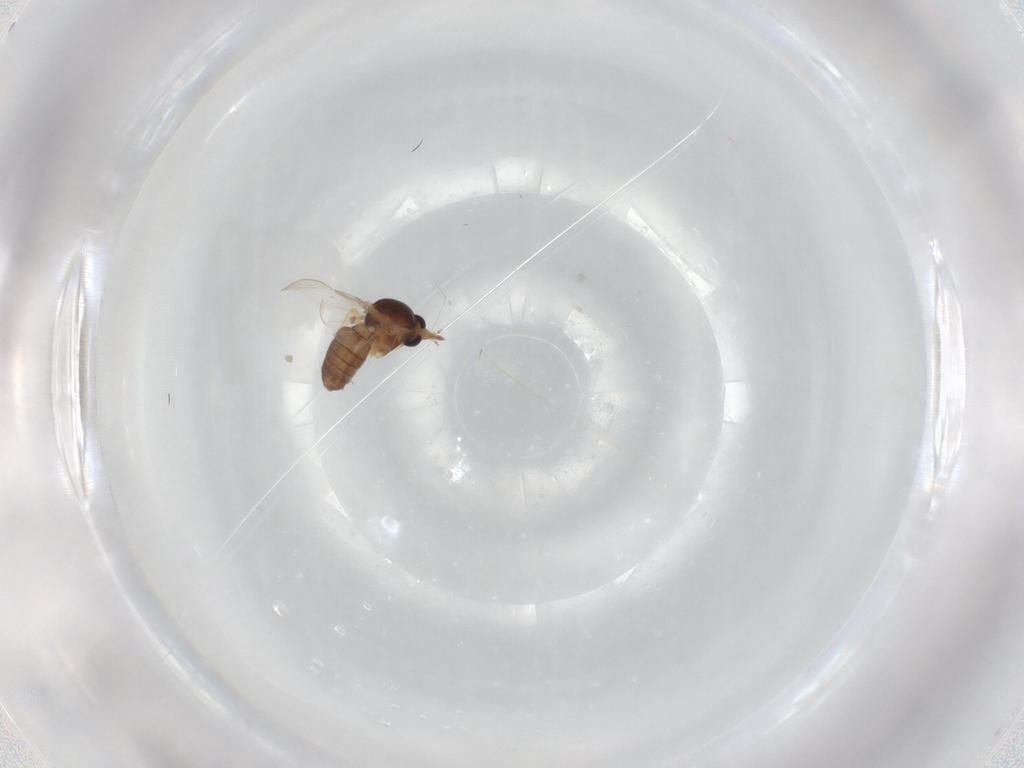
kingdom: Animalia
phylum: Arthropoda
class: Insecta
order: Diptera
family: Ceratopogonidae
